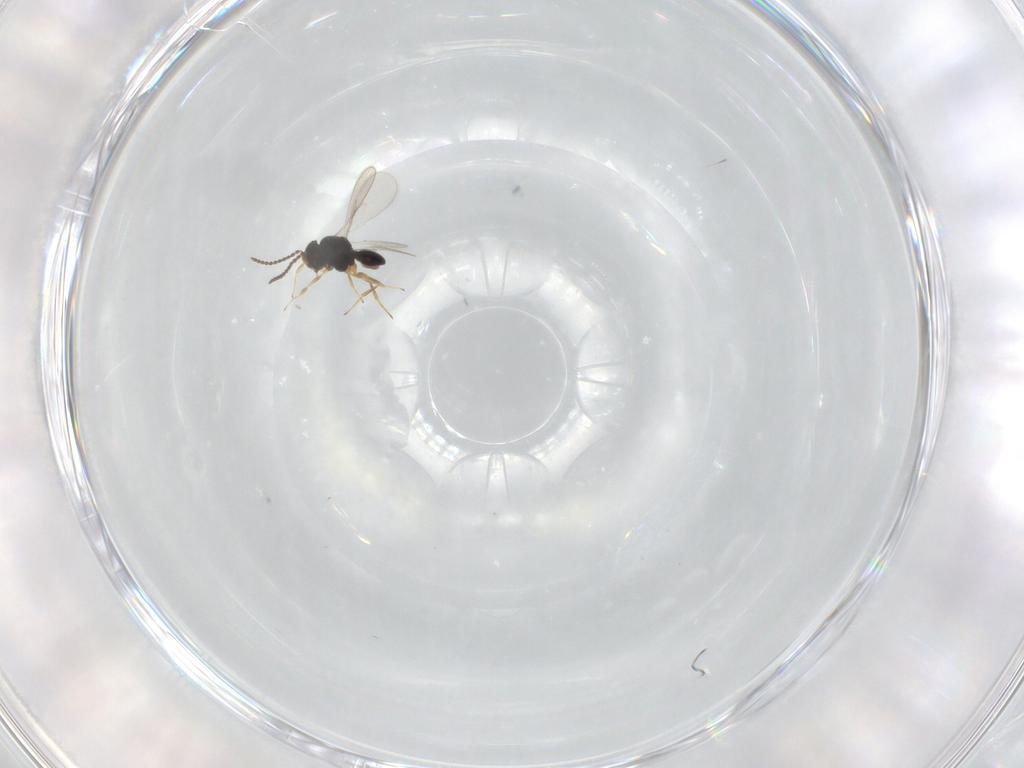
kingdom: Animalia
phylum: Arthropoda
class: Insecta
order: Hymenoptera
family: Scelionidae
